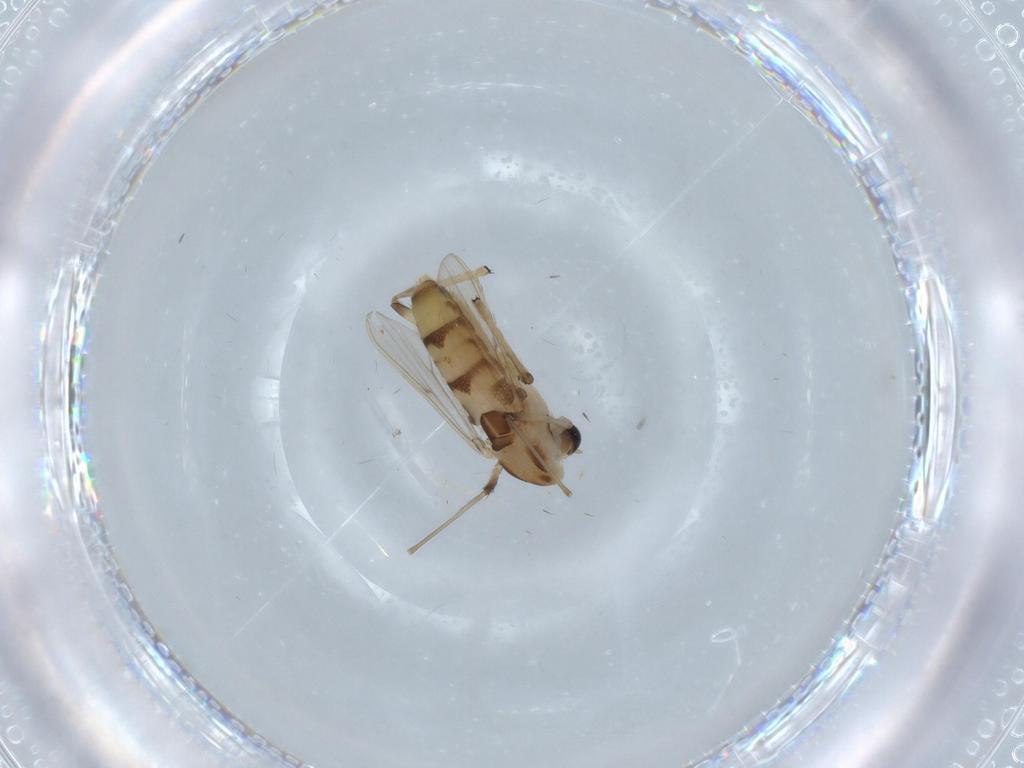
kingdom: Animalia
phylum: Arthropoda
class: Insecta
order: Diptera
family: Chironomidae
